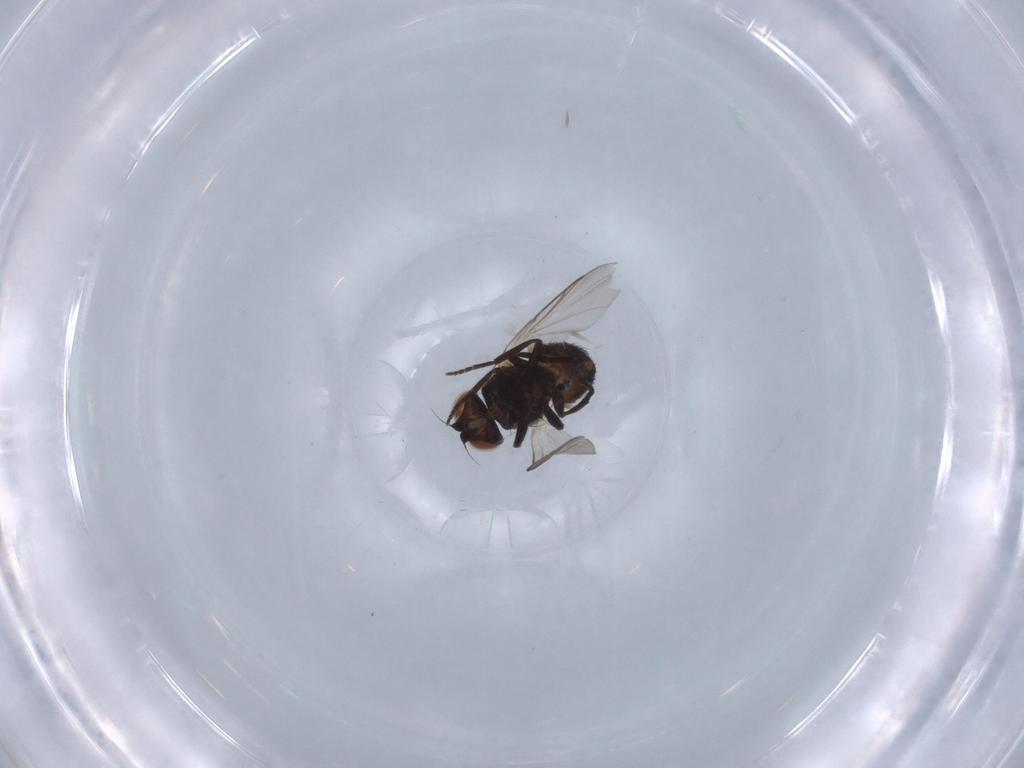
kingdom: Animalia
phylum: Arthropoda
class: Insecta
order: Diptera
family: Agromyzidae
